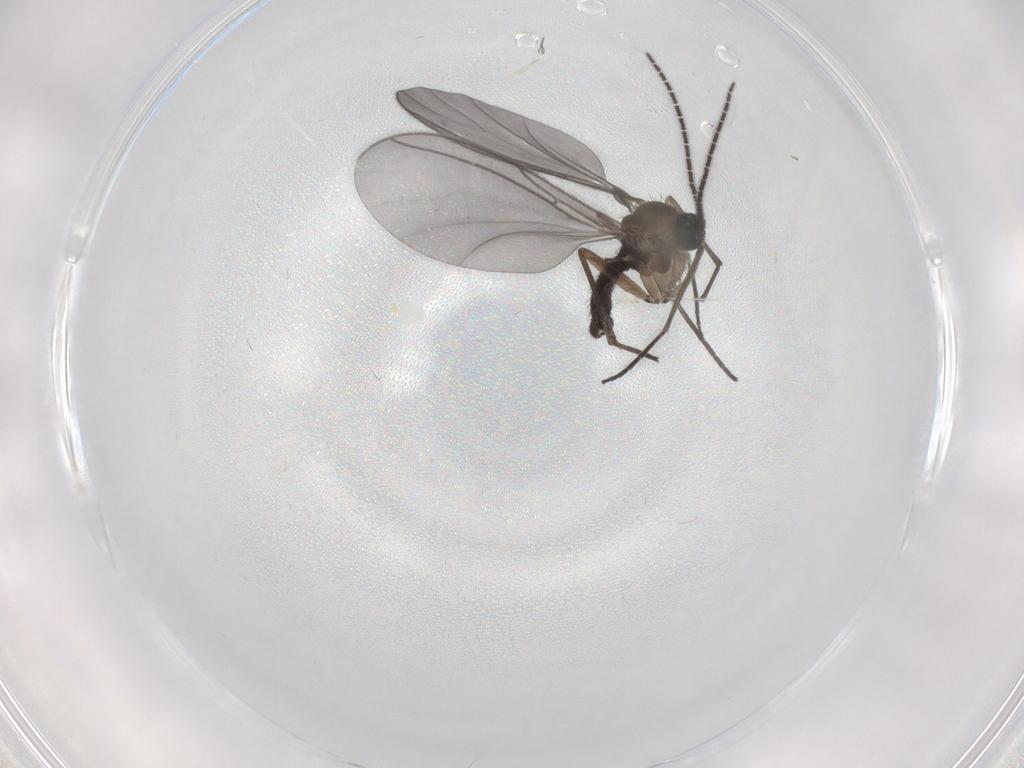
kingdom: Animalia
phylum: Arthropoda
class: Insecta
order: Diptera
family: Sciaridae
